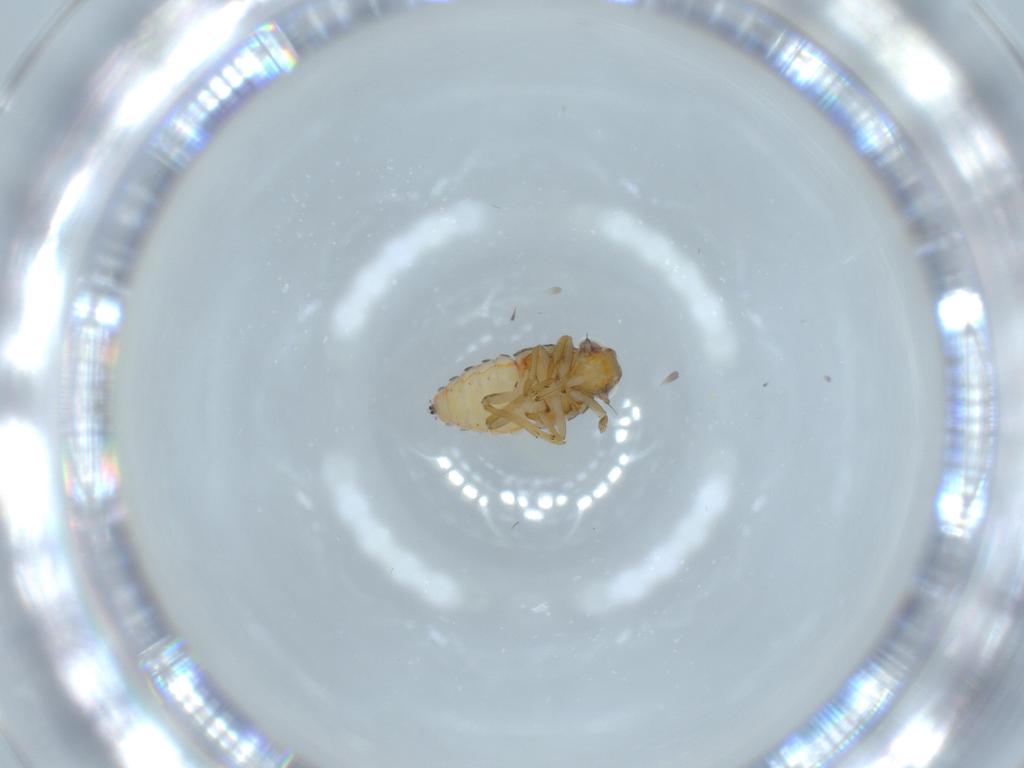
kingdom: Animalia
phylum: Arthropoda
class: Insecta
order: Hemiptera
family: Issidae
